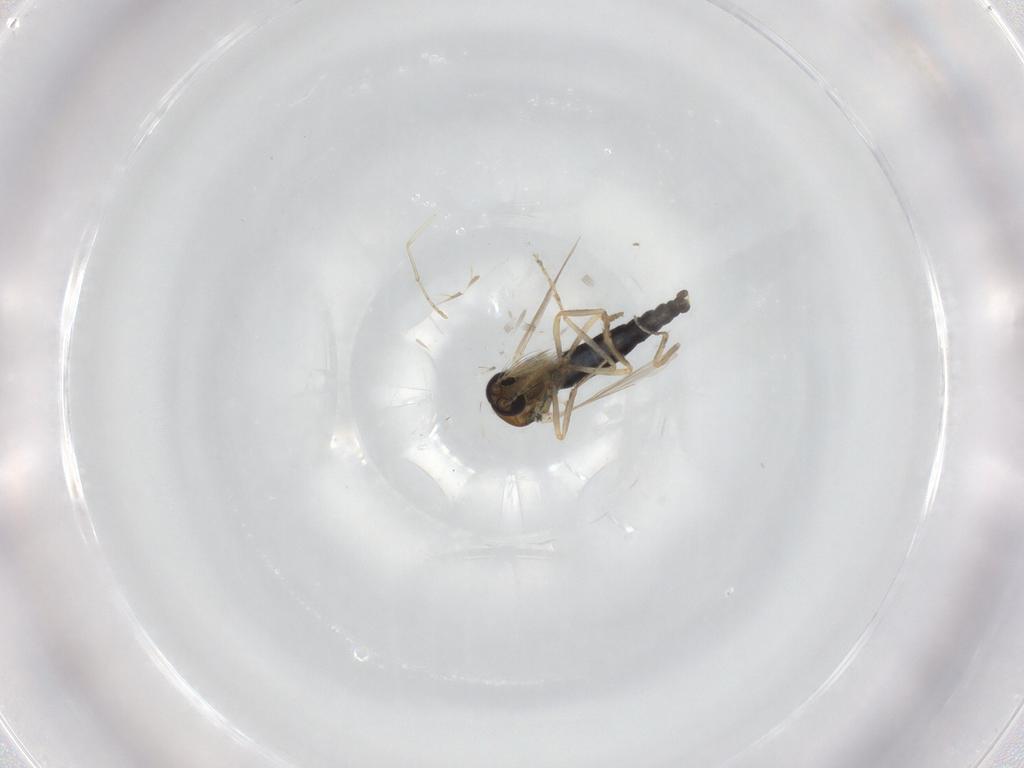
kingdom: Animalia
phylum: Arthropoda
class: Insecta
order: Diptera
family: Ceratopogonidae
